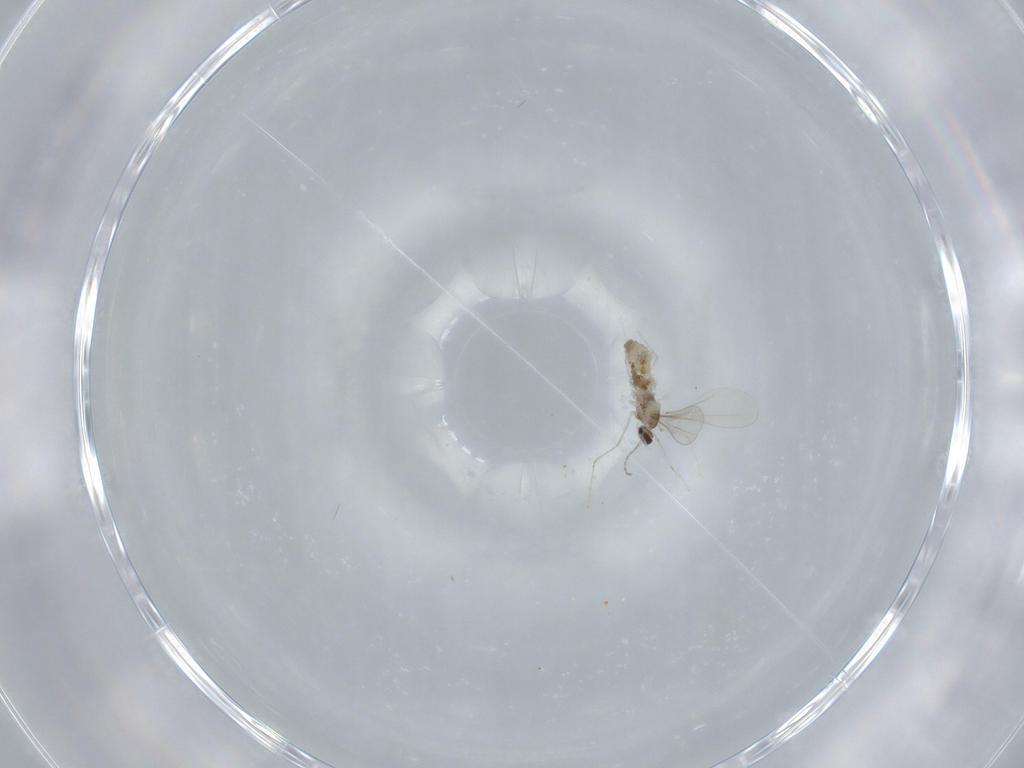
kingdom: Animalia
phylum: Arthropoda
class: Insecta
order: Diptera
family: Cecidomyiidae
